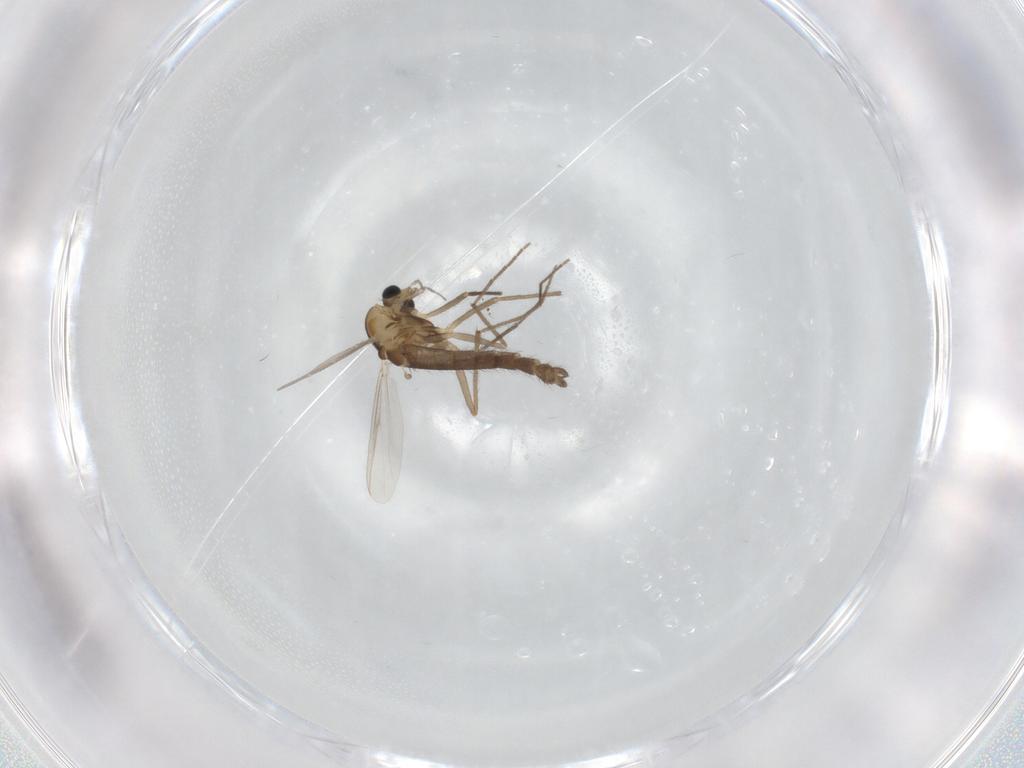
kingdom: Animalia
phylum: Arthropoda
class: Insecta
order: Diptera
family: Chironomidae
